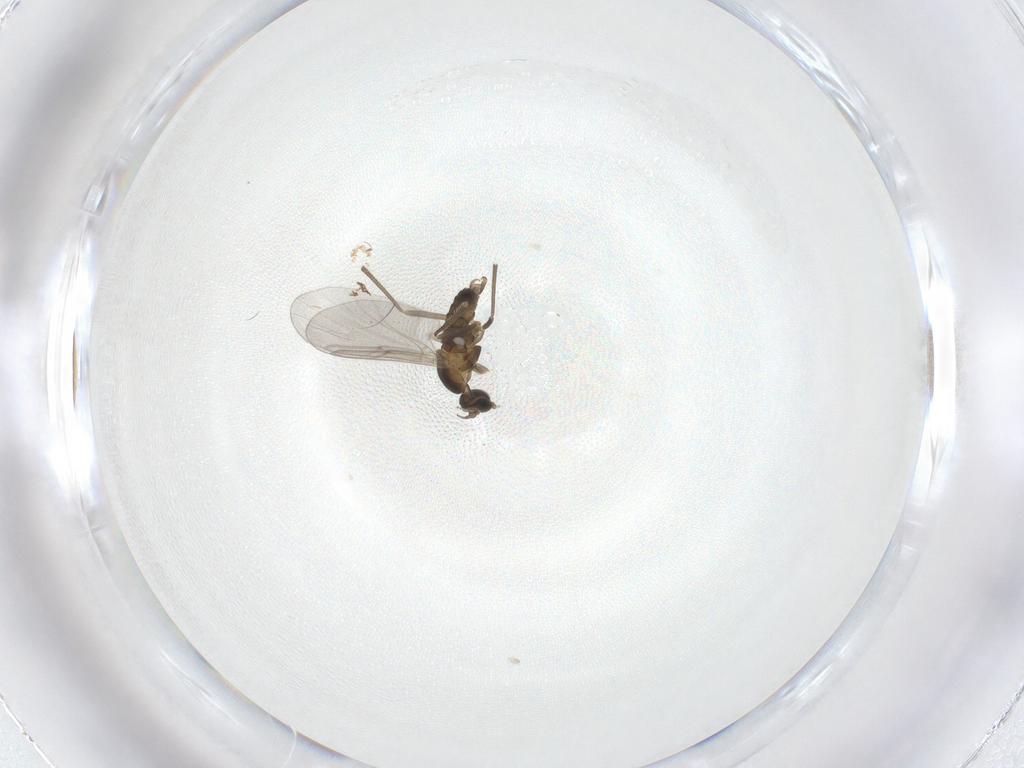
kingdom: Animalia
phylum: Arthropoda
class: Insecta
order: Diptera
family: Cecidomyiidae
